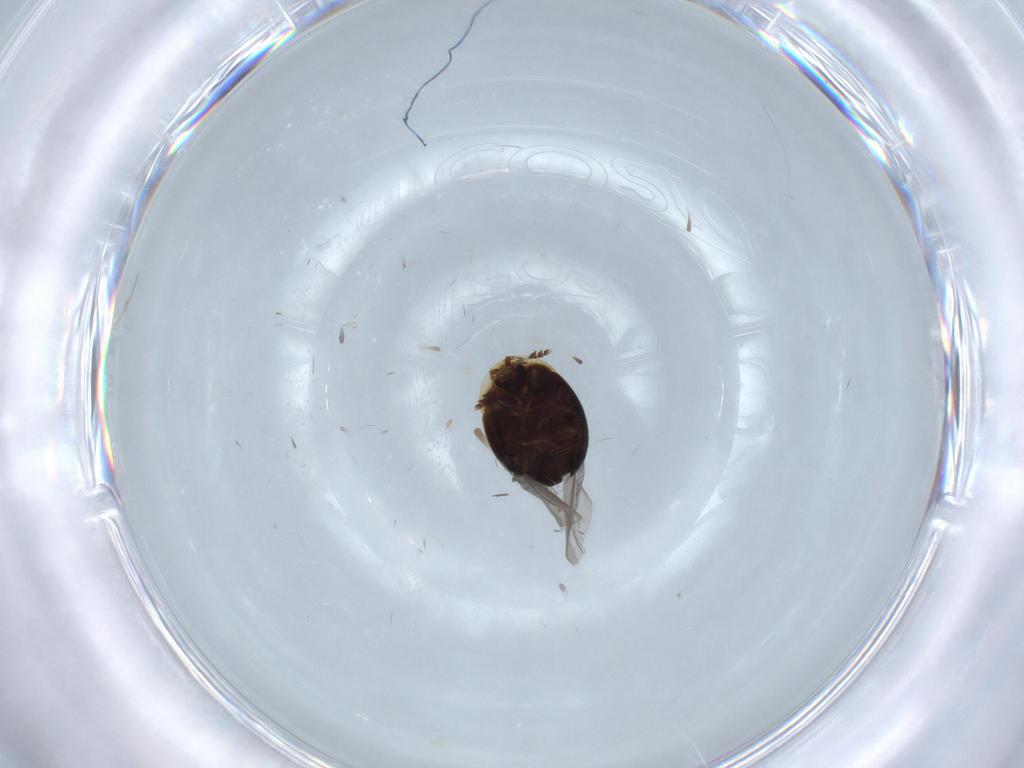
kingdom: Animalia
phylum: Arthropoda
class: Insecta
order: Coleoptera
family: Corylophidae
